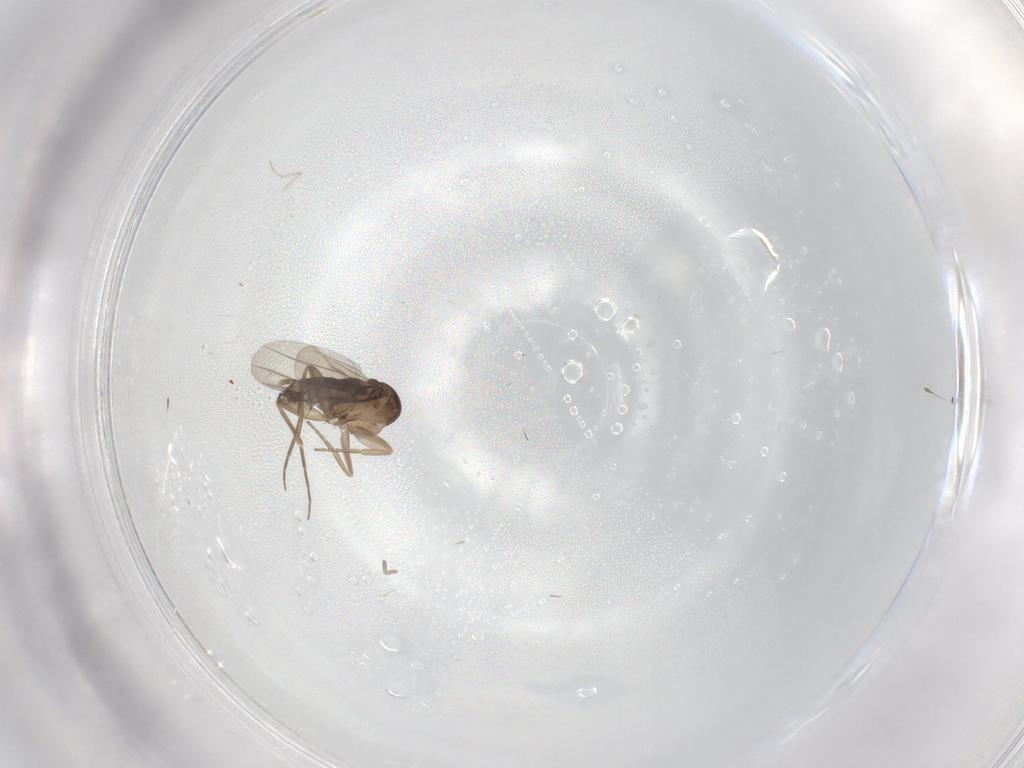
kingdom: Animalia
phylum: Arthropoda
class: Insecta
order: Diptera
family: Phoridae
